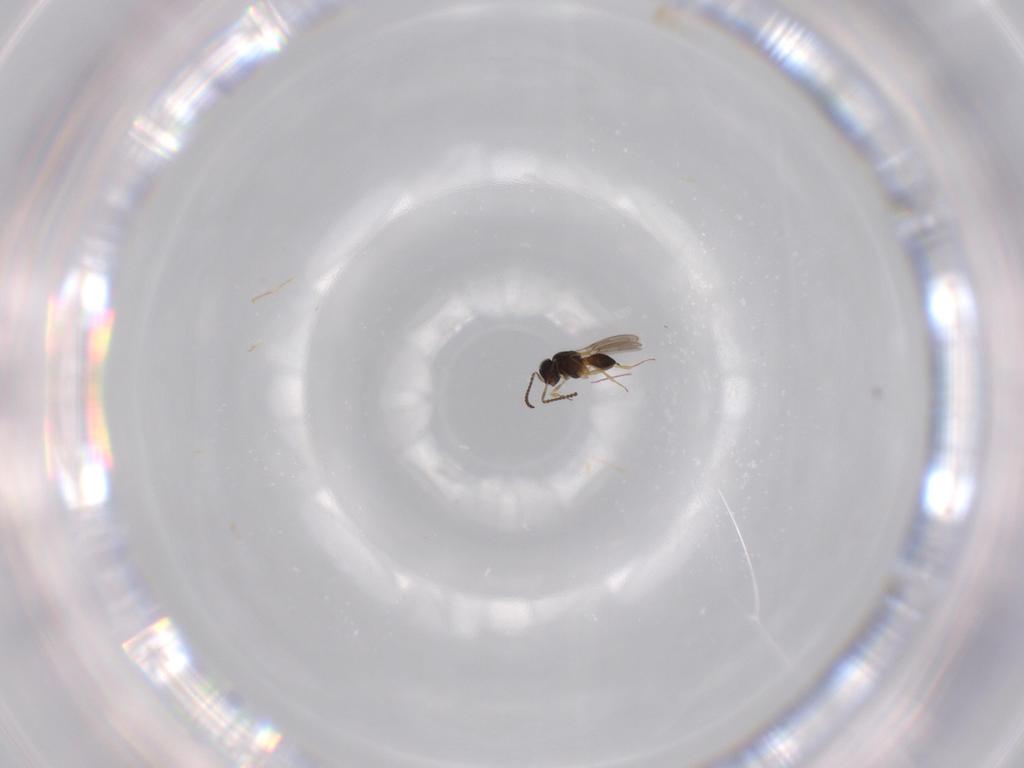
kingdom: Animalia
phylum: Arthropoda
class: Insecta
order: Hymenoptera
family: Scelionidae
